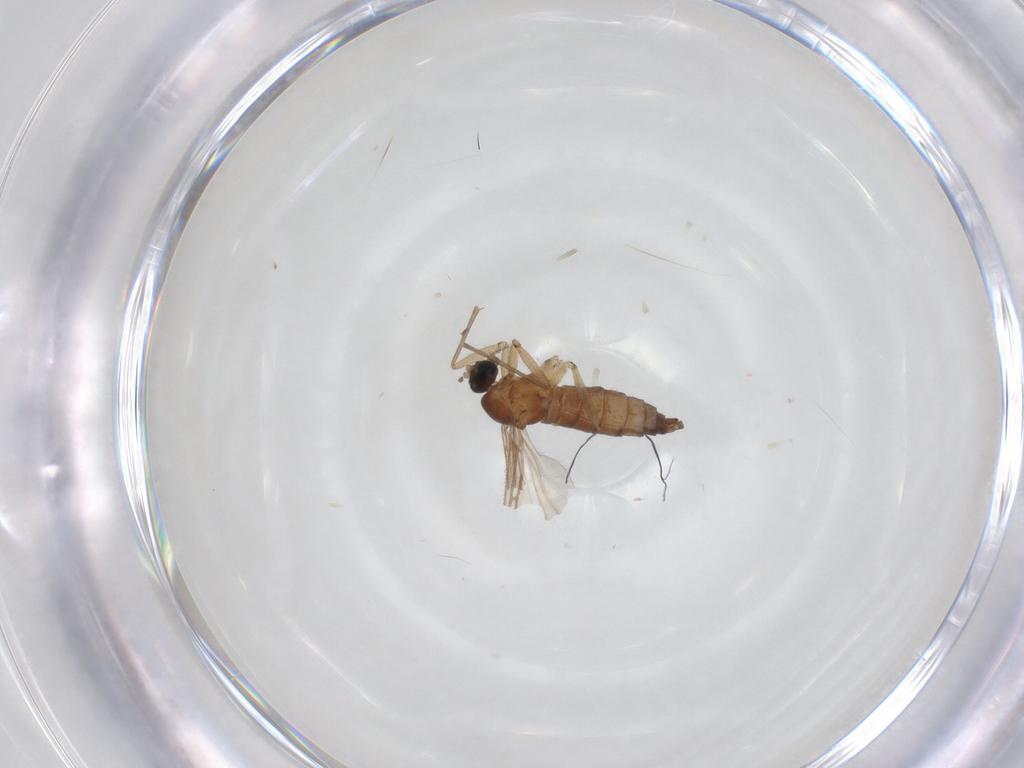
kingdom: Animalia
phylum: Arthropoda
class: Insecta
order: Diptera
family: Sciaridae
